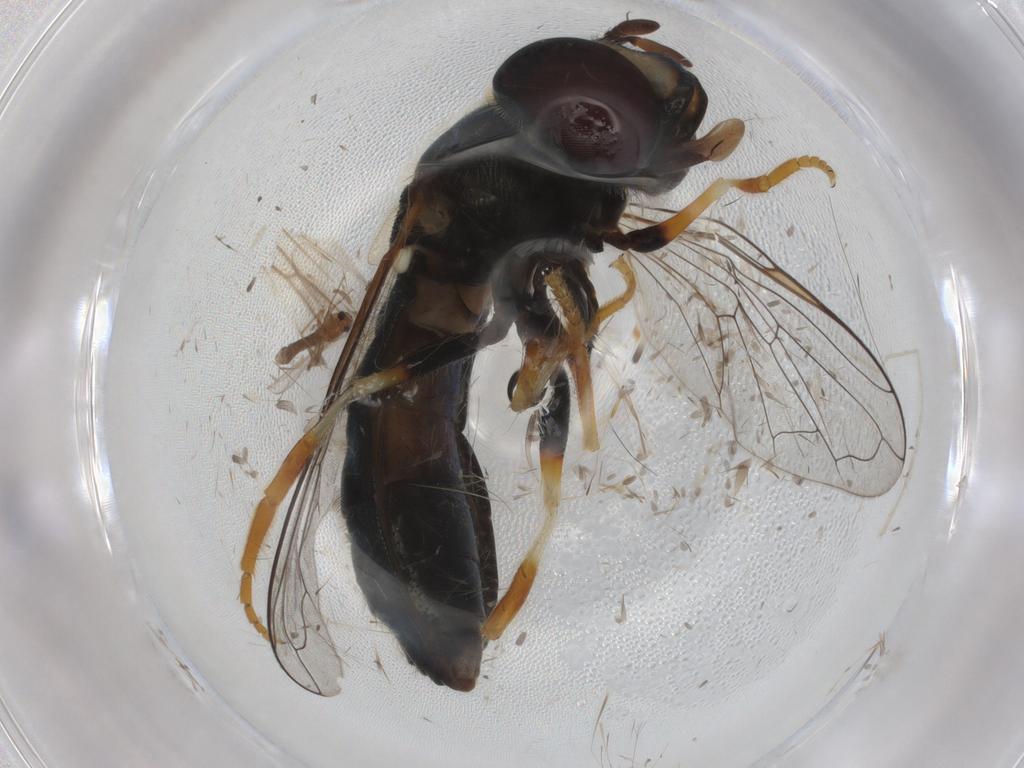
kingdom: Animalia
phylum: Arthropoda
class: Insecta
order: Diptera
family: Syrphidae
